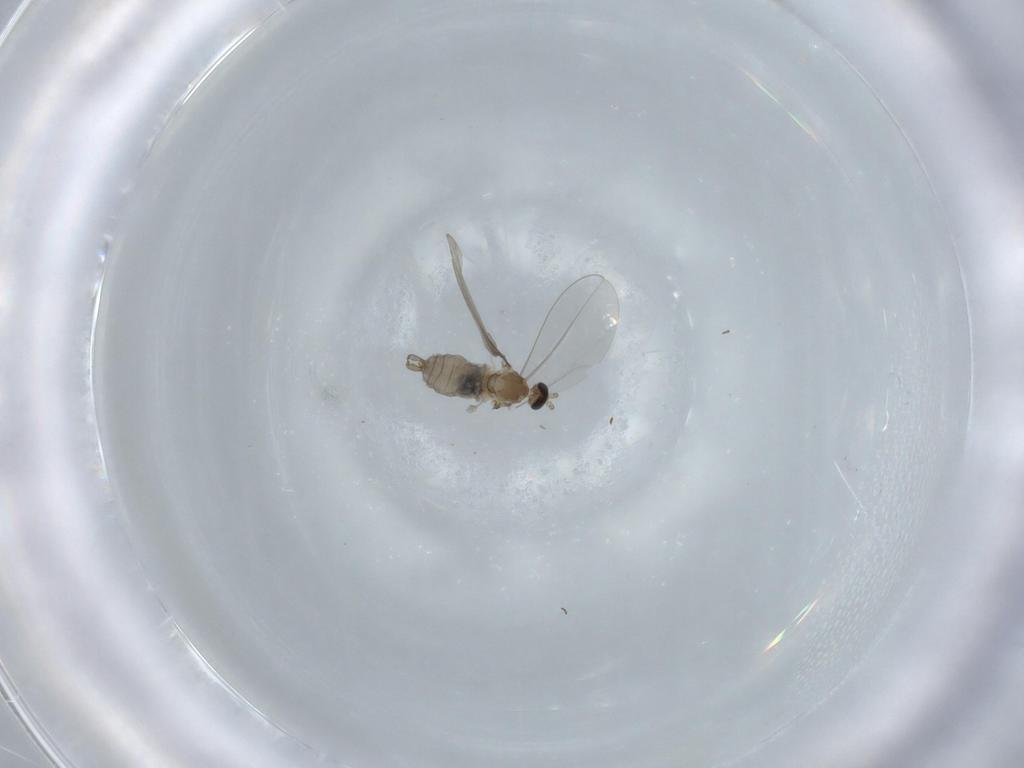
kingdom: Animalia
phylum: Arthropoda
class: Insecta
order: Diptera
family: Cecidomyiidae
